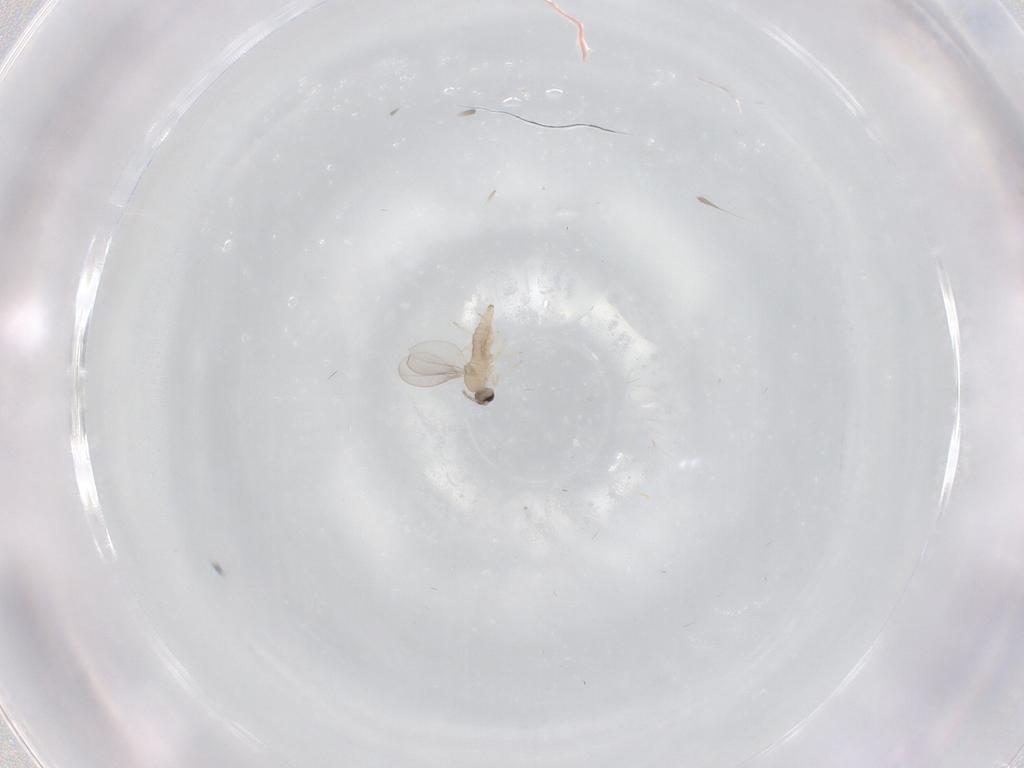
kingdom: Animalia
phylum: Arthropoda
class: Insecta
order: Diptera
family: Cecidomyiidae
